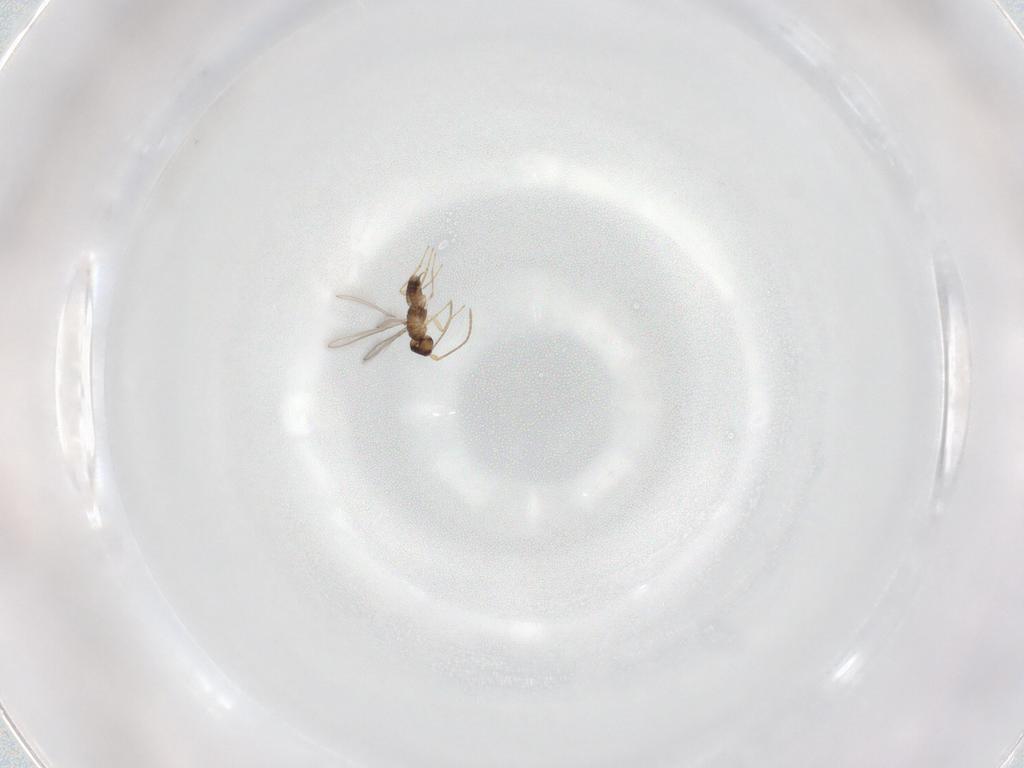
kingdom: Animalia
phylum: Arthropoda
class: Insecta
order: Hymenoptera
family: Mymaridae
